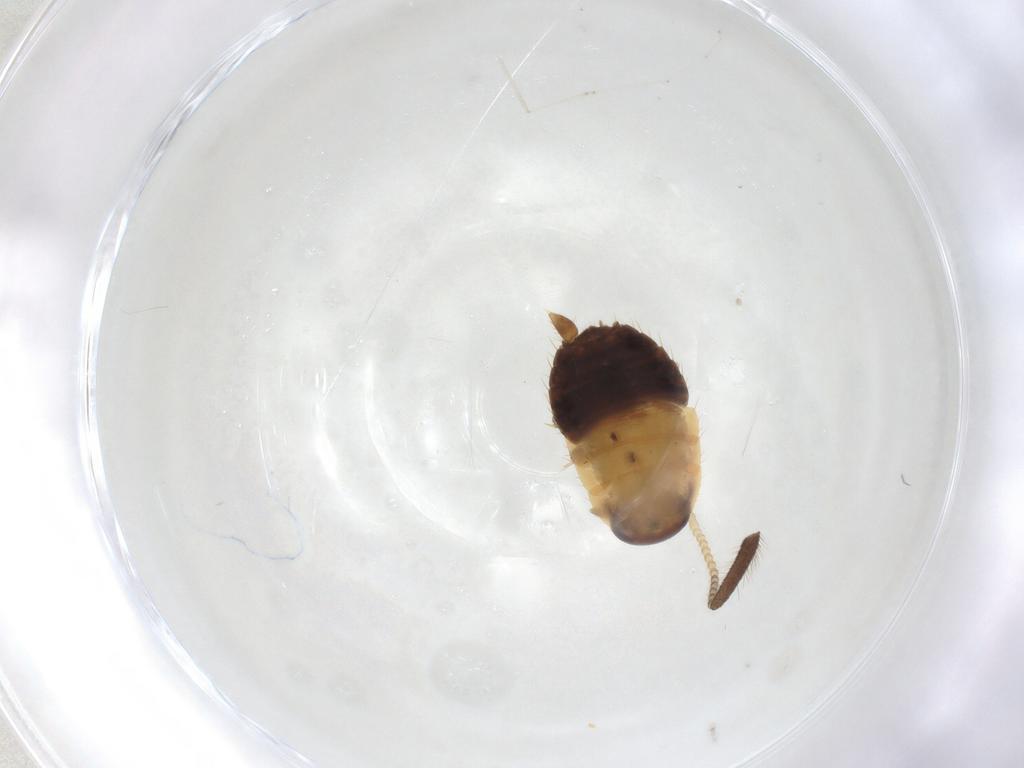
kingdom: Animalia
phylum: Arthropoda
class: Insecta
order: Blattodea
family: Ectobiidae
